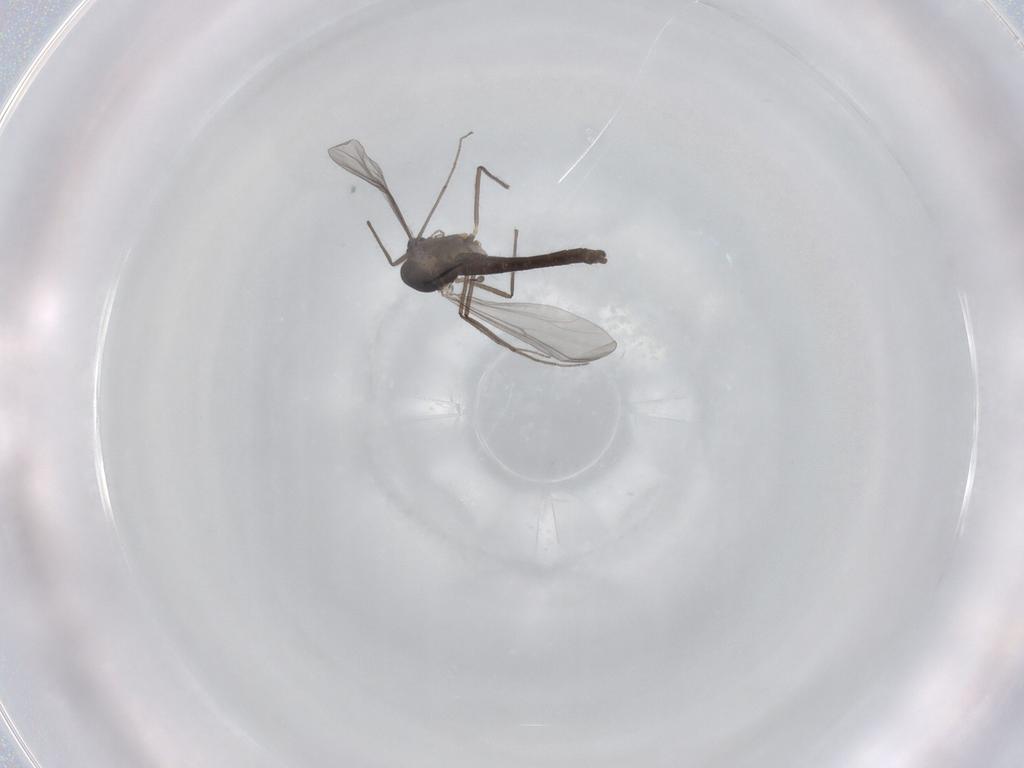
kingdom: Animalia
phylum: Arthropoda
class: Insecta
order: Diptera
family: Chironomidae
